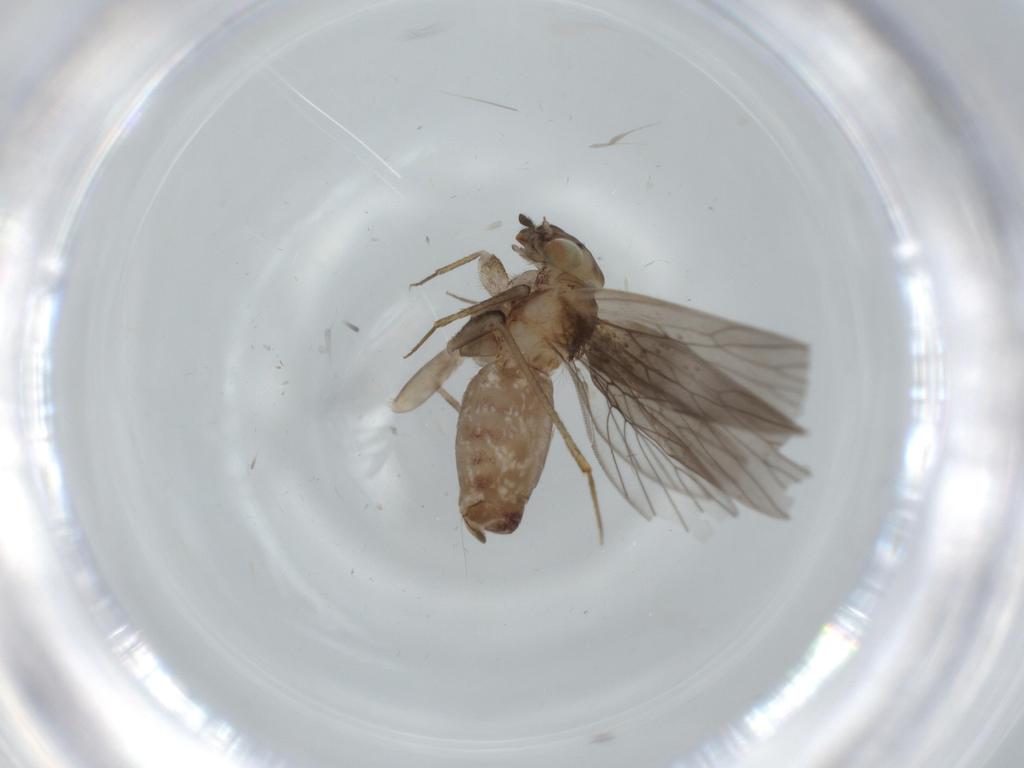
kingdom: Animalia
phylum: Arthropoda
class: Insecta
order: Psocodea
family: Lepidopsocidae
